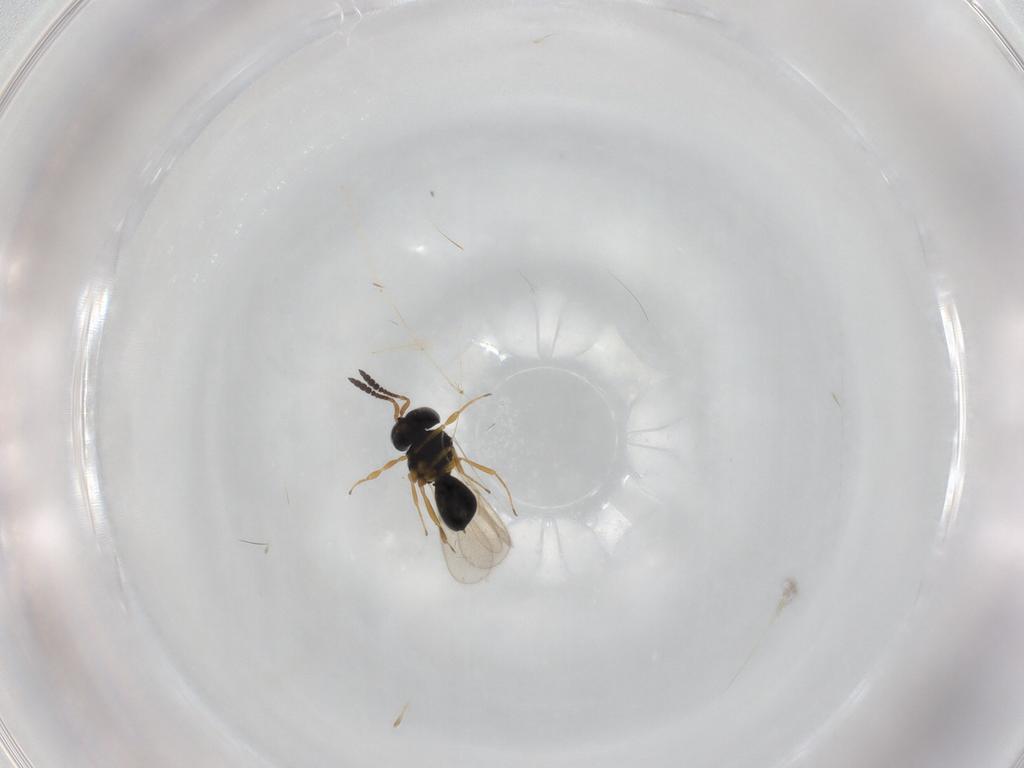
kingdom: Animalia
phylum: Arthropoda
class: Insecta
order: Hymenoptera
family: Scelionidae
